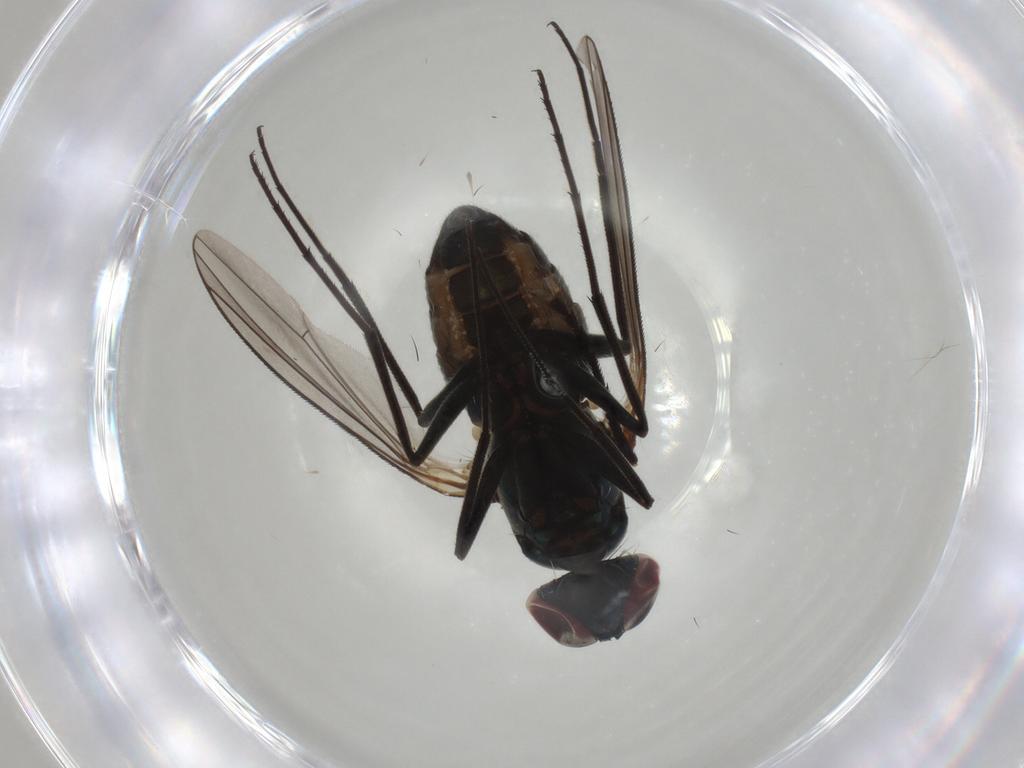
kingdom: Animalia
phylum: Arthropoda
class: Insecta
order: Diptera
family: Dolichopodidae
